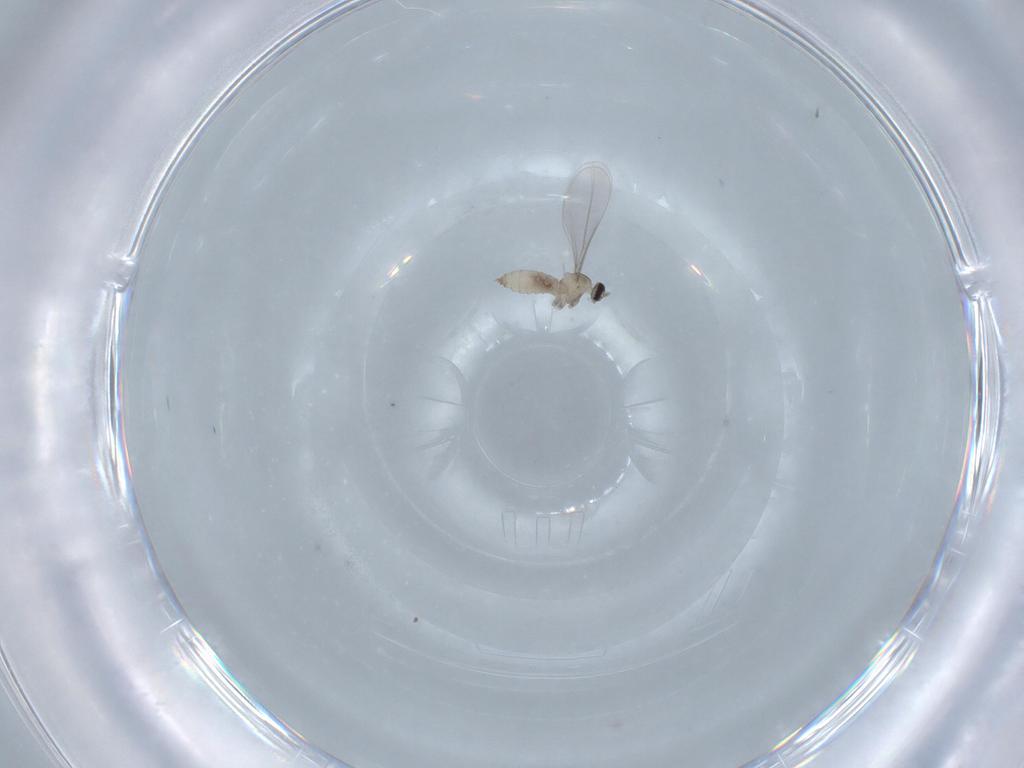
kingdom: Animalia
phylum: Arthropoda
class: Insecta
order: Diptera
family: Cecidomyiidae
